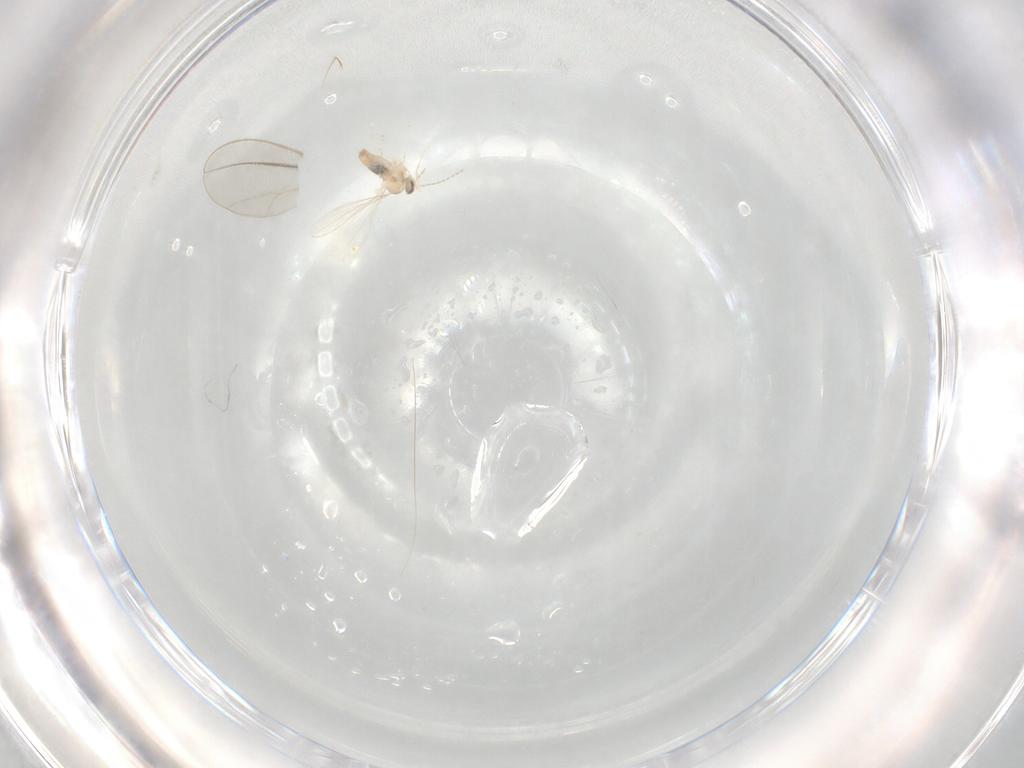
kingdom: Animalia
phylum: Arthropoda
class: Insecta
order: Diptera
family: Cecidomyiidae
